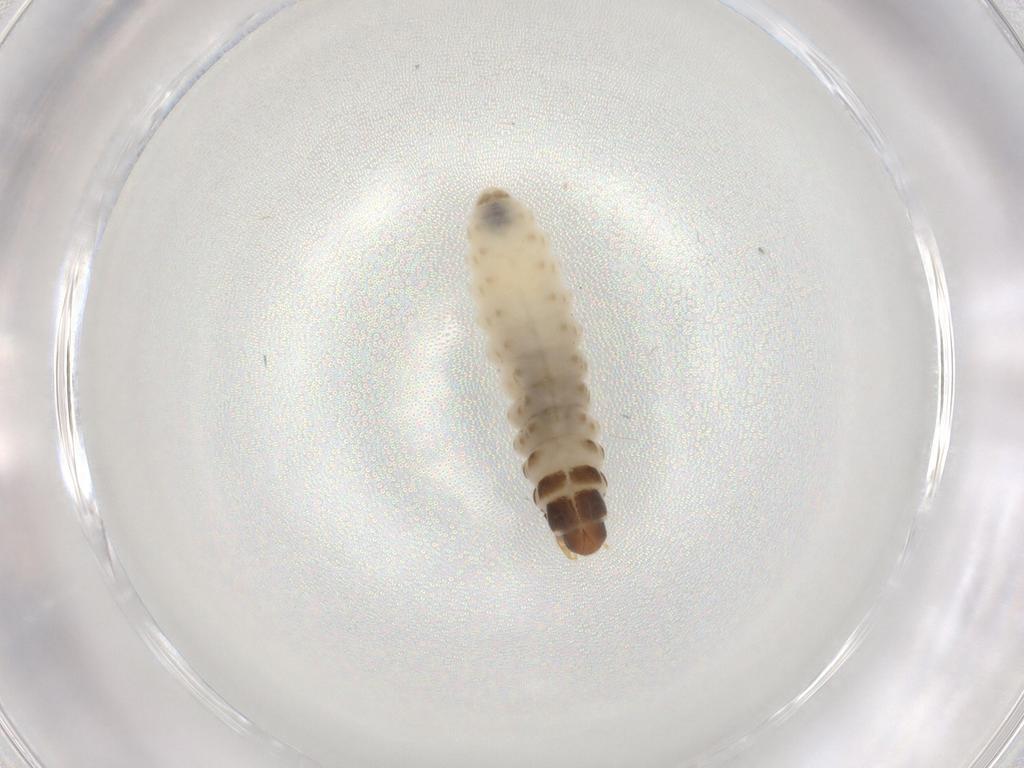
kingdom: Animalia
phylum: Arthropoda
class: Insecta
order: Lepidoptera
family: Psychidae
